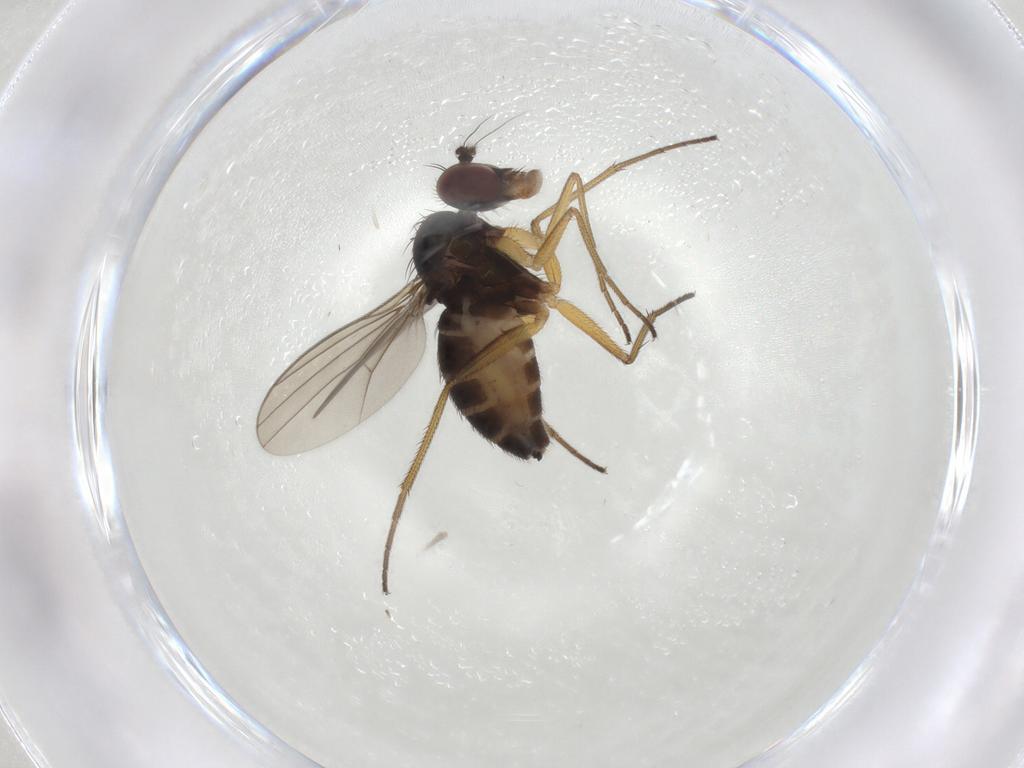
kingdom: Animalia
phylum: Arthropoda
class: Insecta
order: Diptera
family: Dolichopodidae
